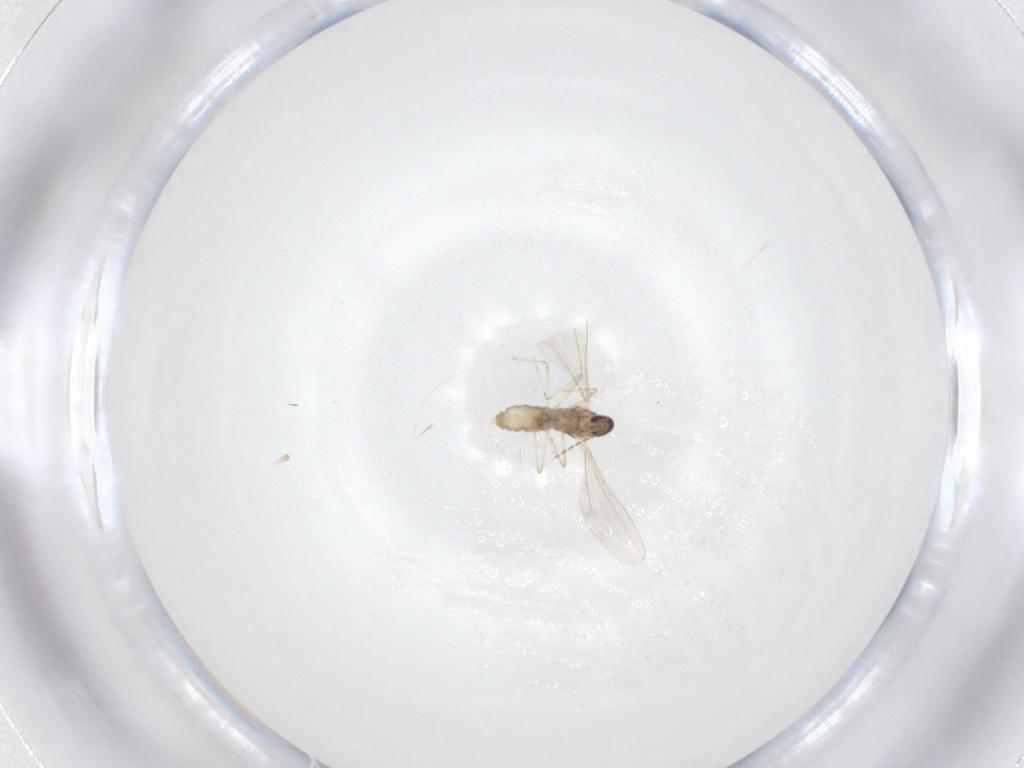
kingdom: Animalia
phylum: Arthropoda
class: Insecta
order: Diptera
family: Cecidomyiidae
